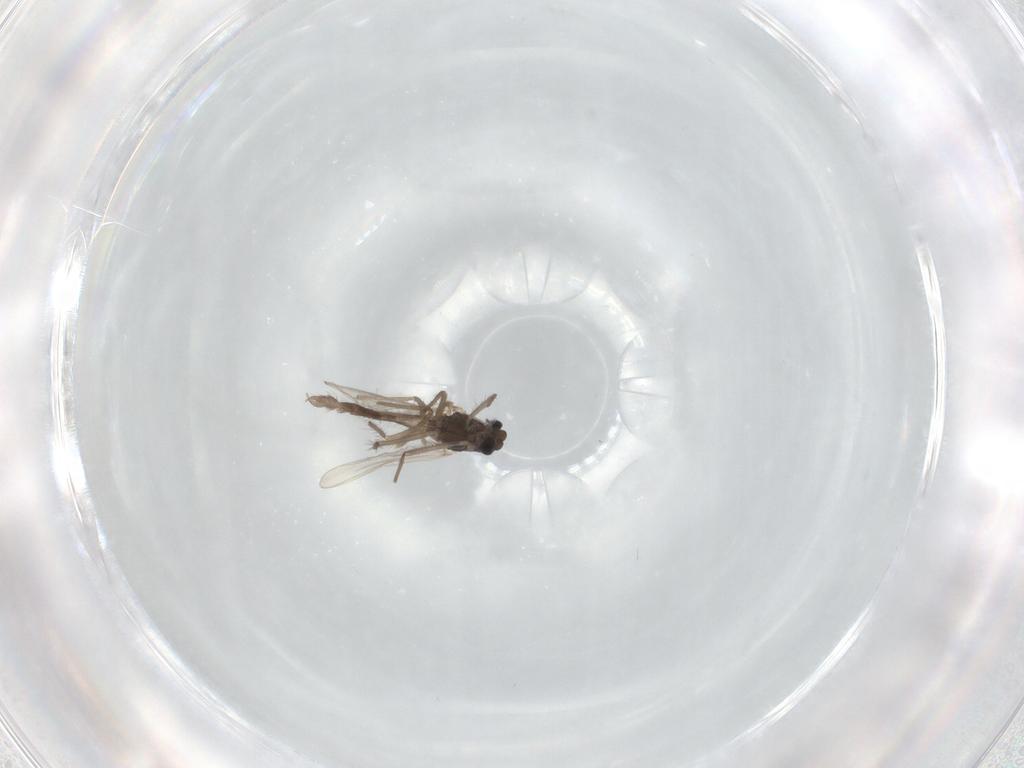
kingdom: Animalia
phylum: Arthropoda
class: Insecta
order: Diptera
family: Chironomidae
